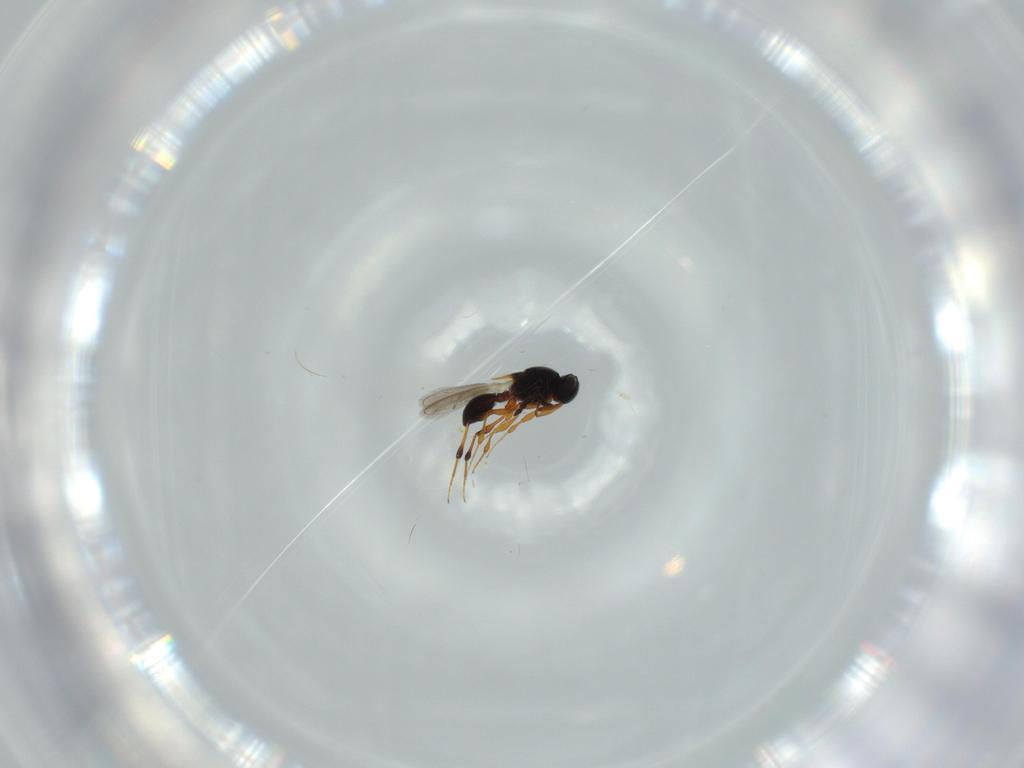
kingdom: Animalia
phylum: Arthropoda
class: Insecta
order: Hymenoptera
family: Platygastridae
